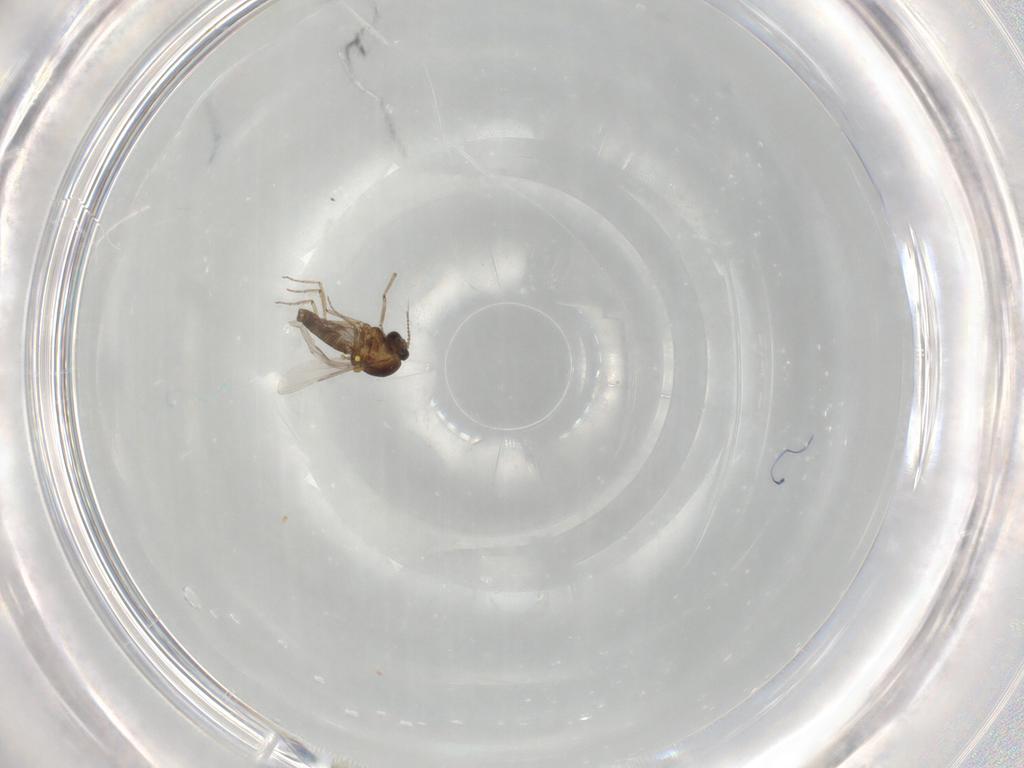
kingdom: Animalia
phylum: Arthropoda
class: Insecta
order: Diptera
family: Ceratopogonidae
